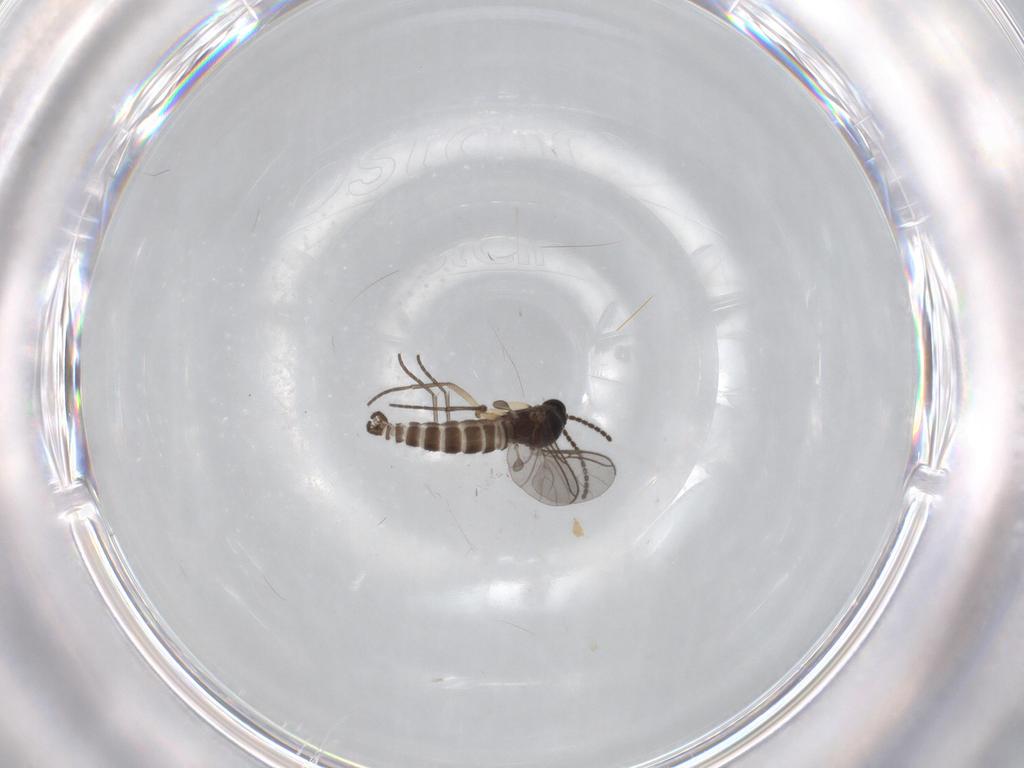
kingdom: Animalia
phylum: Arthropoda
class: Insecta
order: Diptera
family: Sciaridae
